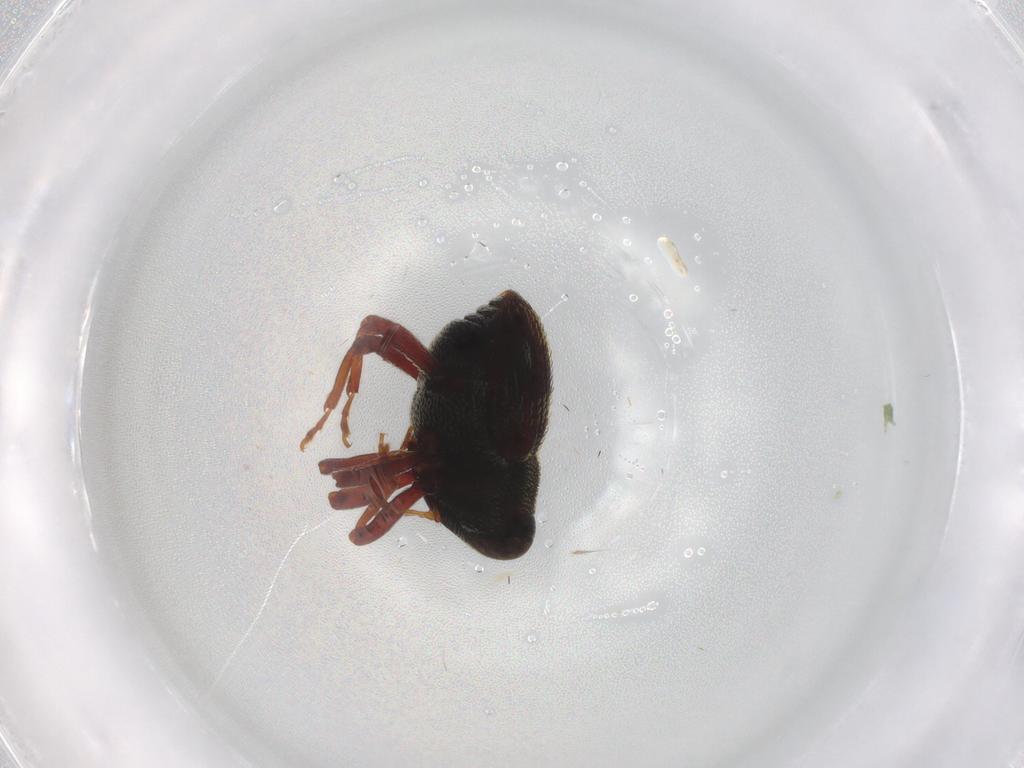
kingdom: Animalia
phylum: Arthropoda
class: Insecta
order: Coleoptera
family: Curculionidae
